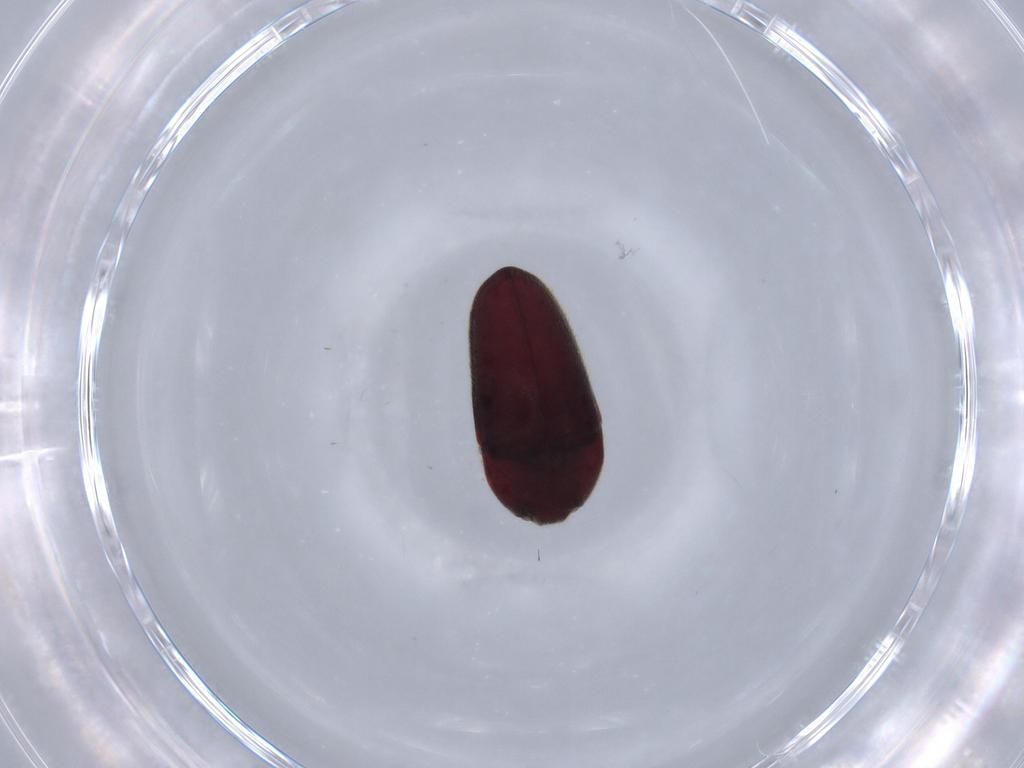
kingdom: Animalia
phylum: Arthropoda
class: Insecta
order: Coleoptera
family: Throscidae
